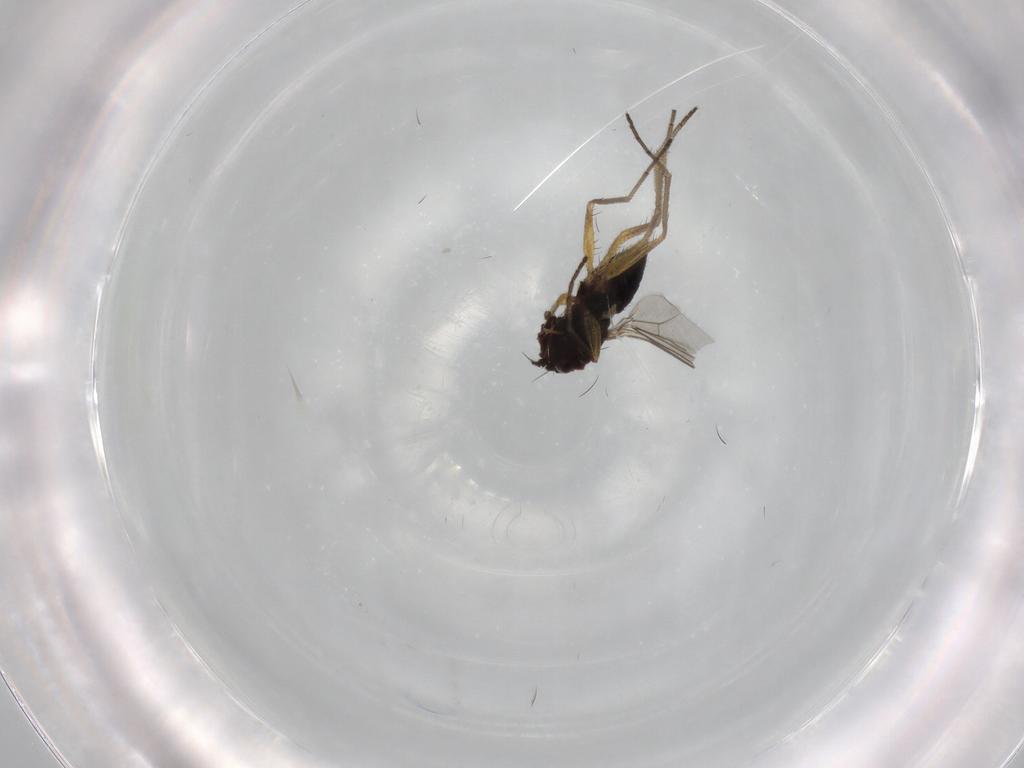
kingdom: Animalia
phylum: Arthropoda
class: Insecta
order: Diptera
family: Dolichopodidae
